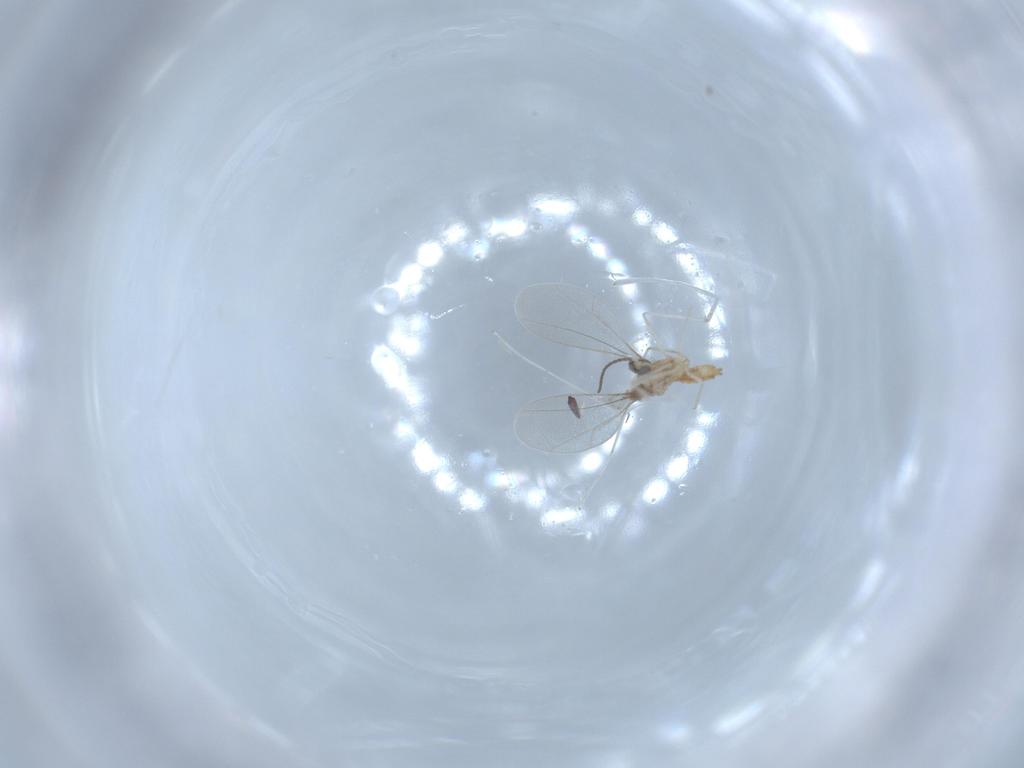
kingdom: Animalia
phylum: Arthropoda
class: Insecta
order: Diptera
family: Cecidomyiidae
